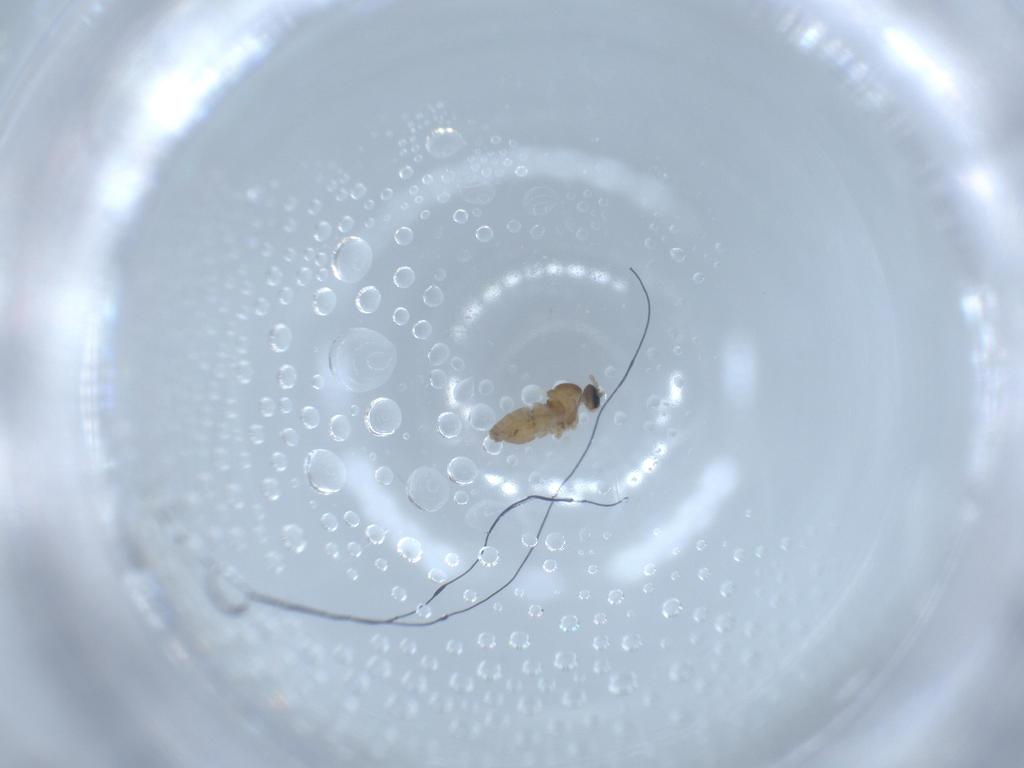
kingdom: Animalia
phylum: Arthropoda
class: Insecta
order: Diptera
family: Cecidomyiidae
